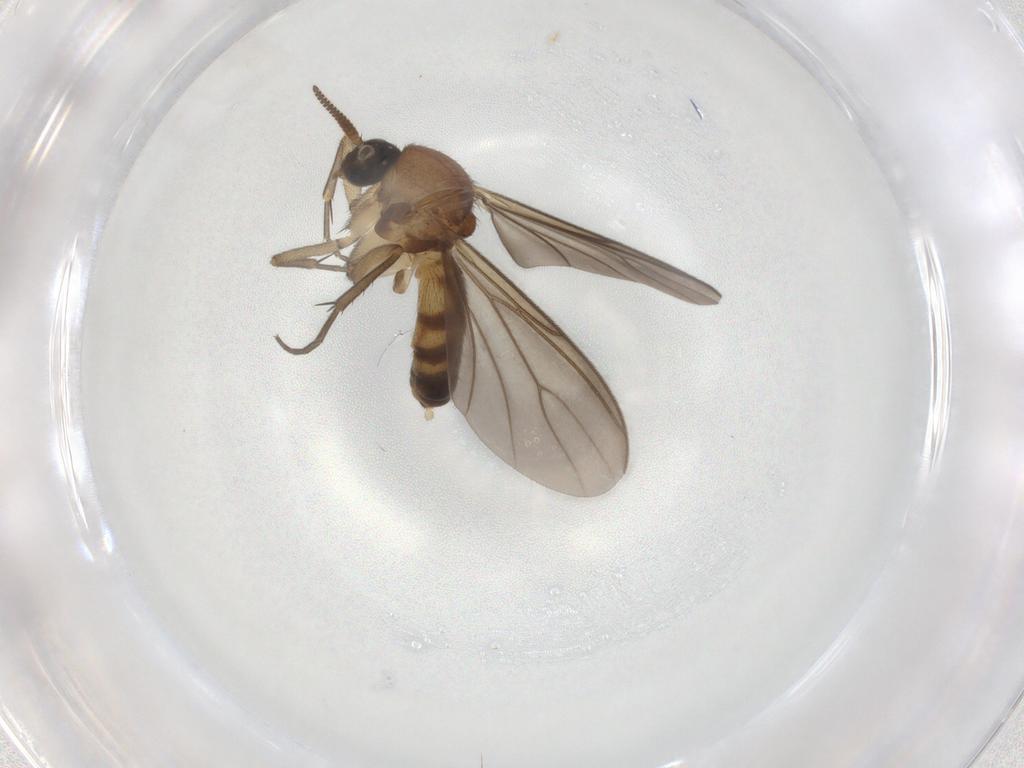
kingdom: Animalia
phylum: Arthropoda
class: Insecta
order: Diptera
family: Mycetophilidae
